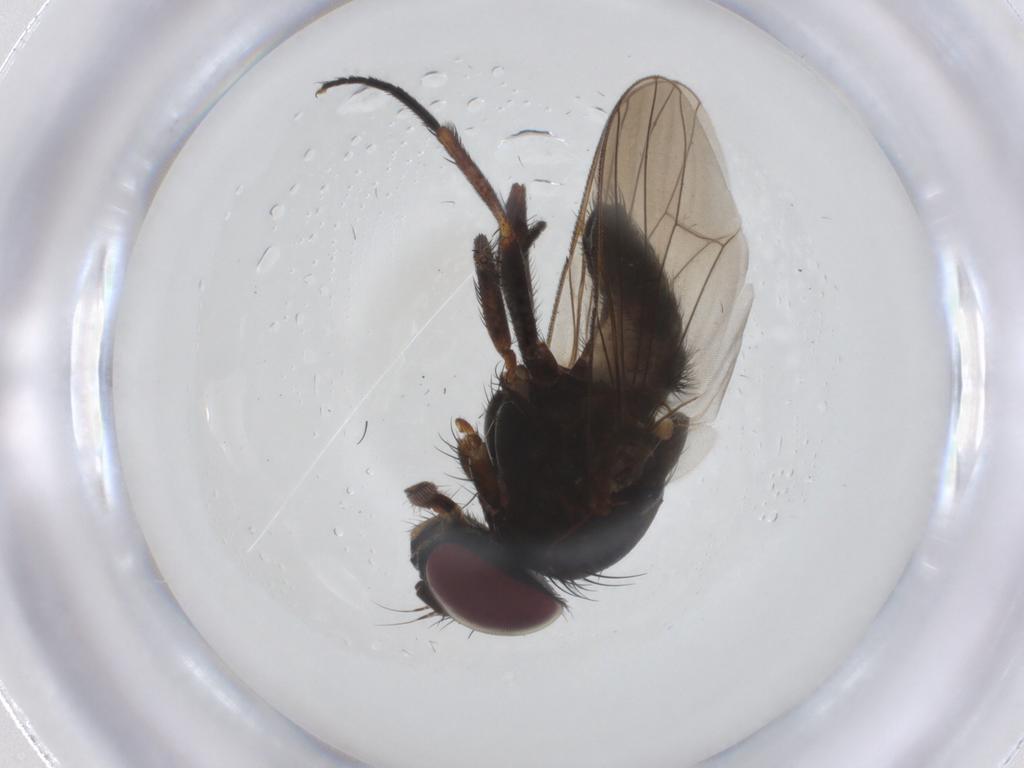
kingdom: Animalia
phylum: Arthropoda
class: Insecta
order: Diptera
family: Fannia
